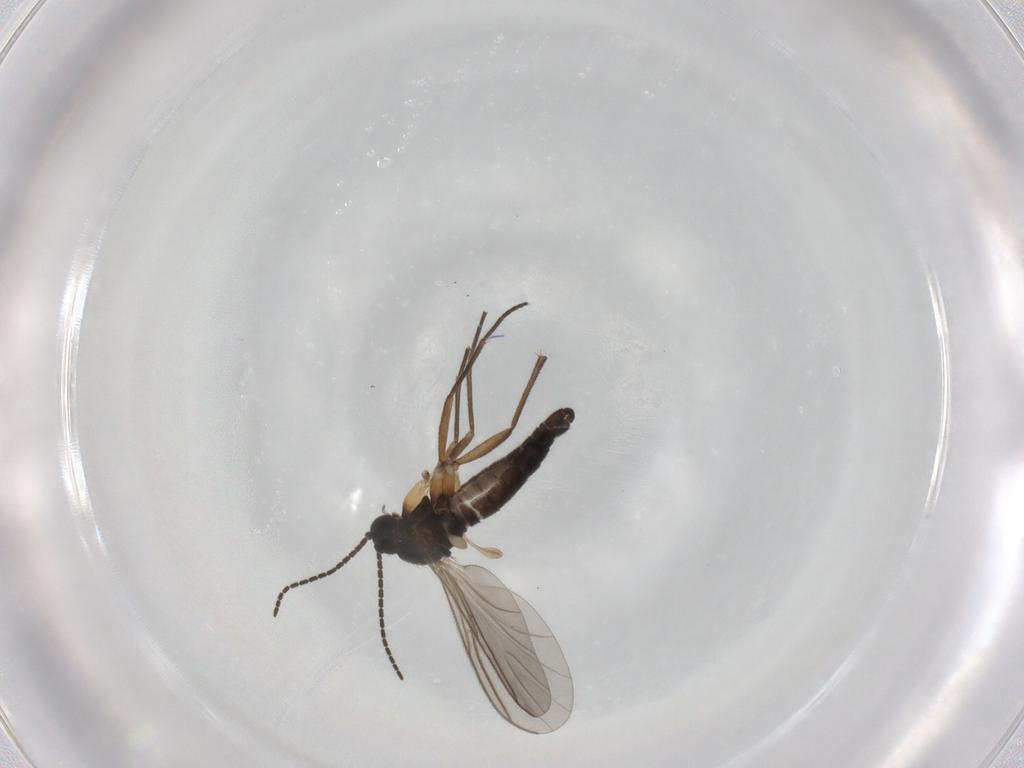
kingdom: Animalia
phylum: Arthropoda
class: Insecta
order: Diptera
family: Sciaridae
